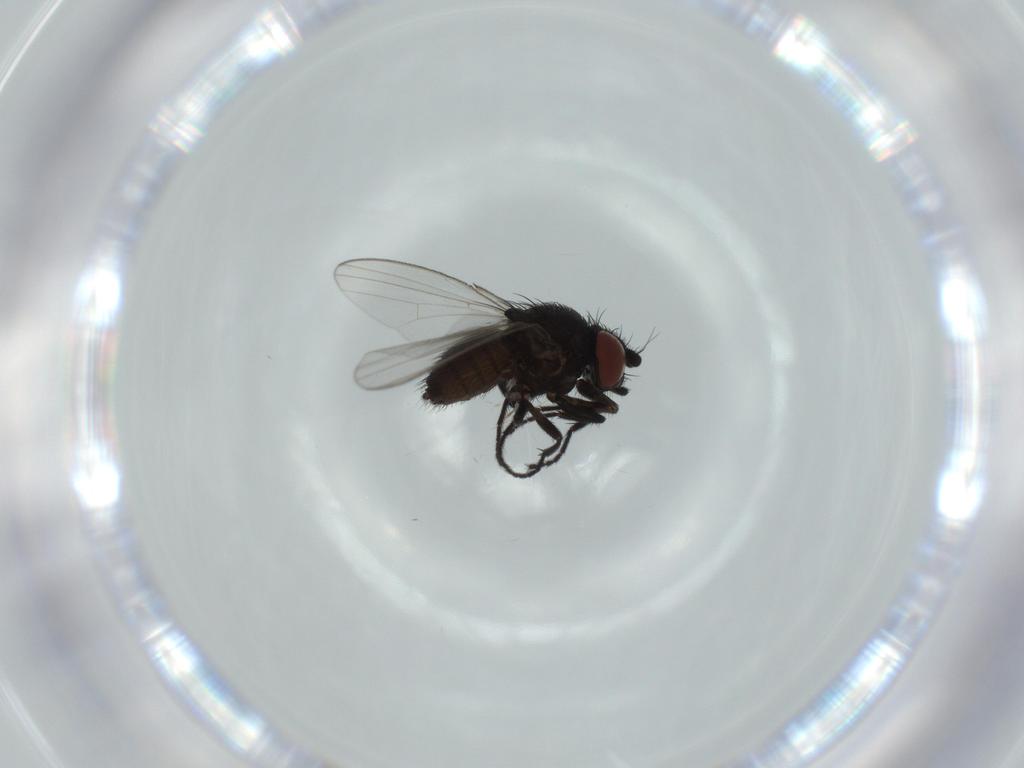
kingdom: Animalia
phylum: Arthropoda
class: Insecta
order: Diptera
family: Milichiidae
